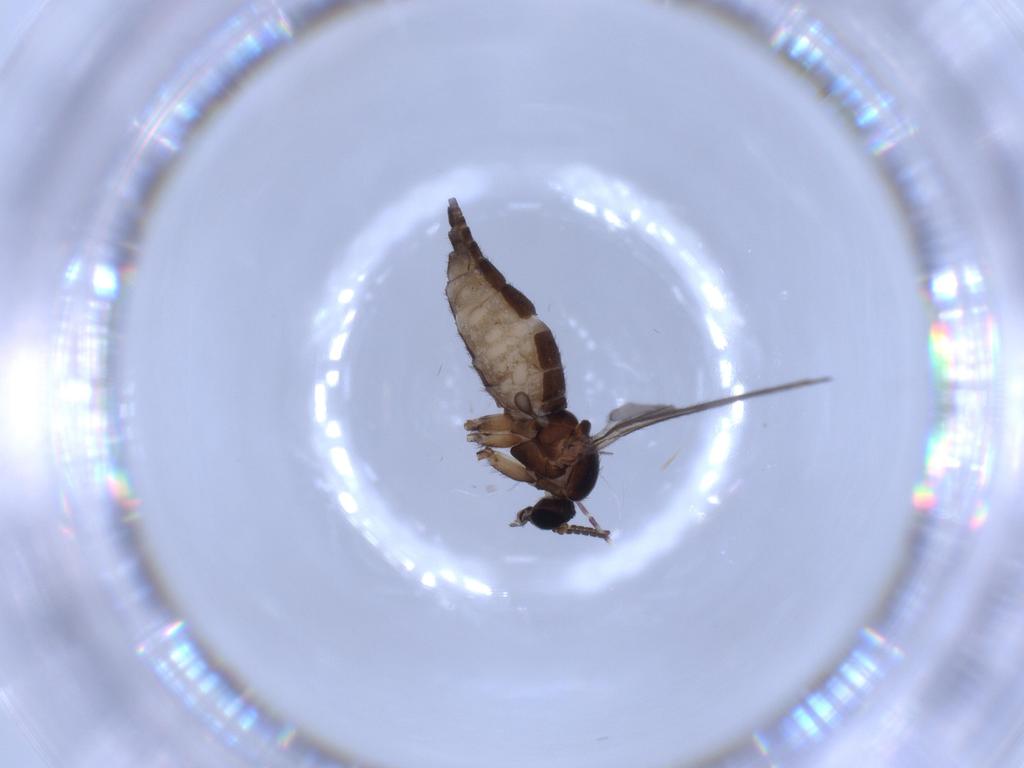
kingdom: Animalia
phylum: Arthropoda
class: Insecta
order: Diptera
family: Sciaridae
